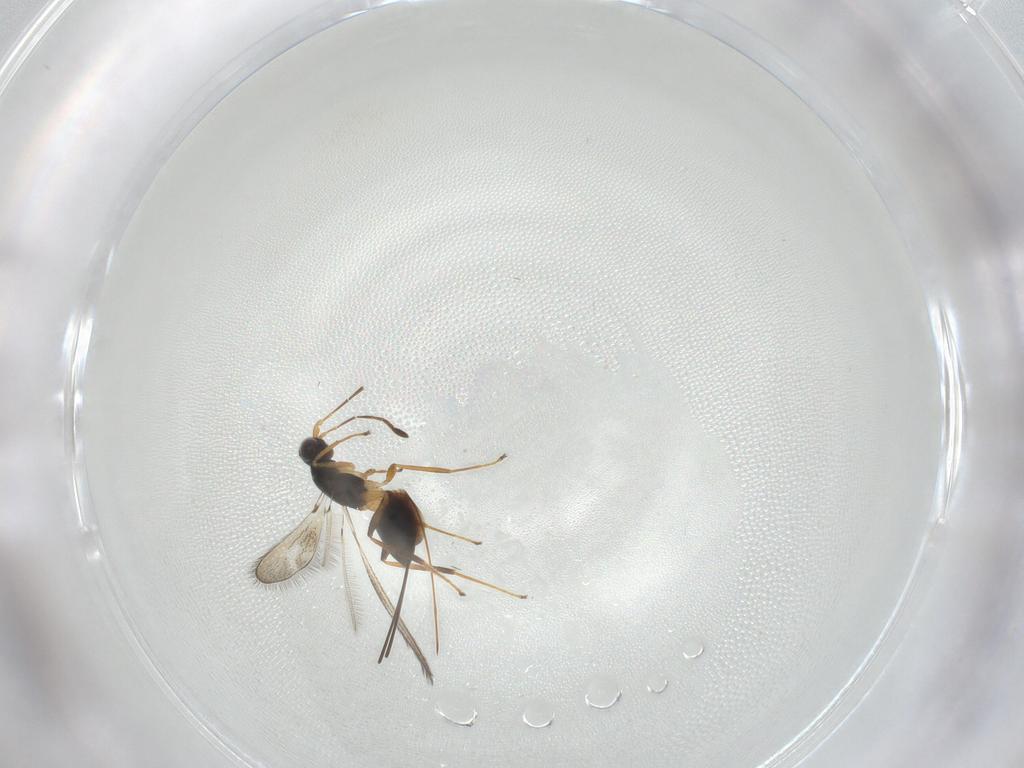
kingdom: Animalia
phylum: Arthropoda
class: Insecta
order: Hymenoptera
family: Mymaridae
